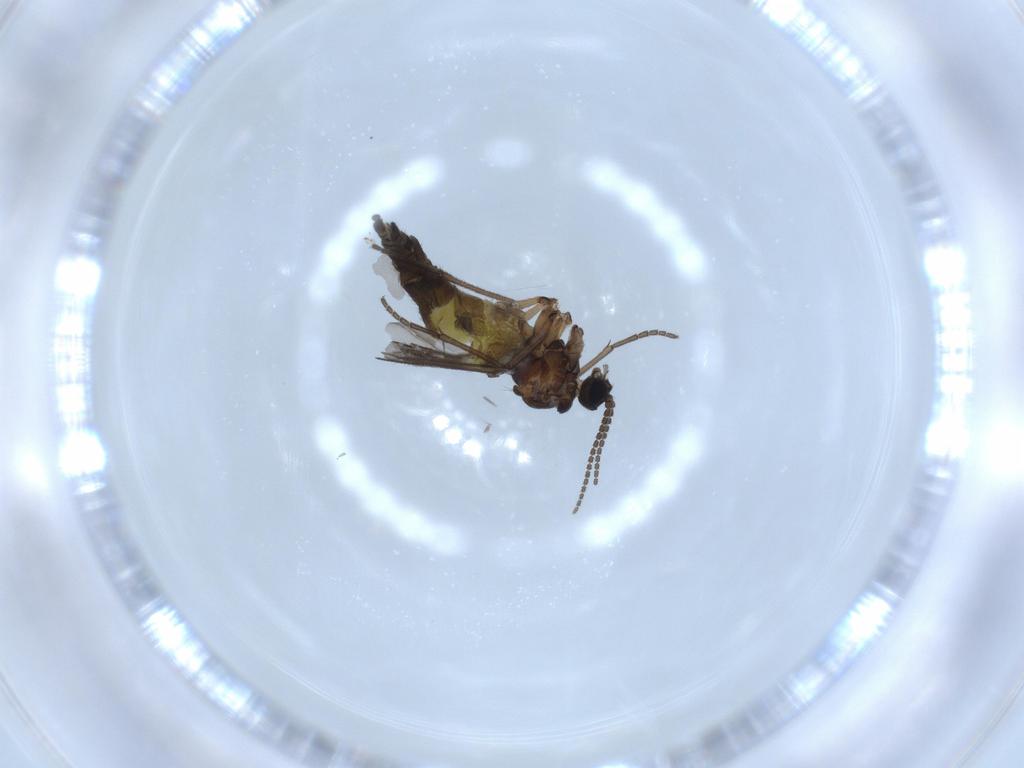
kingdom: Animalia
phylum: Arthropoda
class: Insecta
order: Diptera
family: Sciaridae
